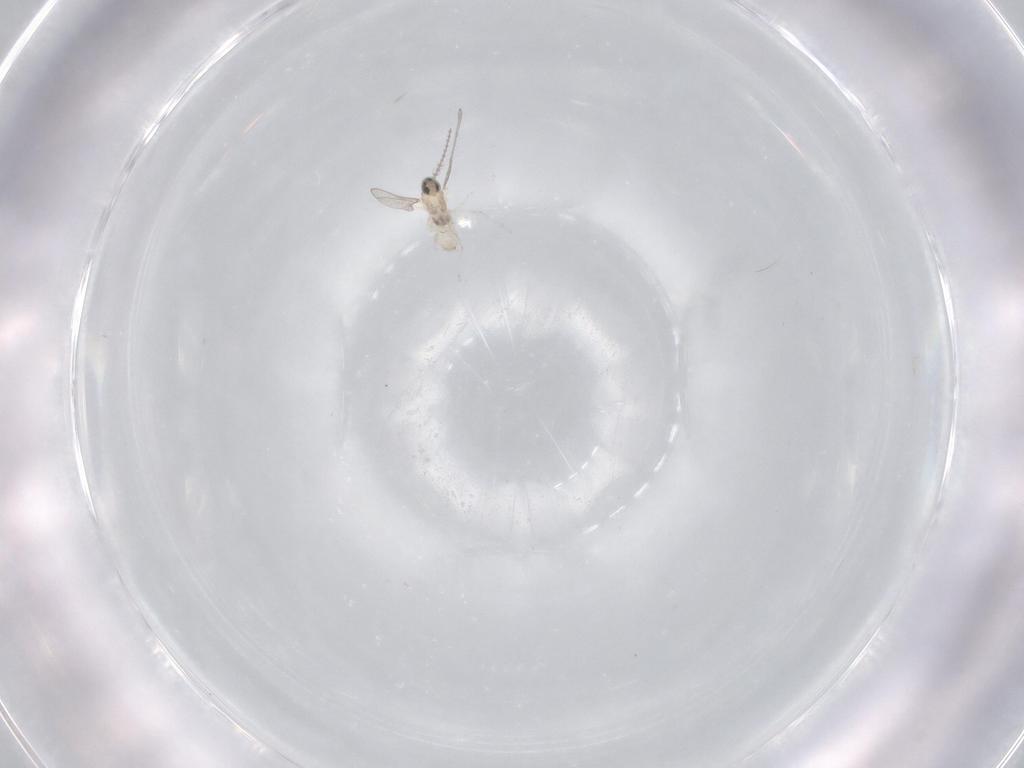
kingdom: Animalia
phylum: Arthropoda
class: Insecta
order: Diptera
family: Cecidomyiidae
